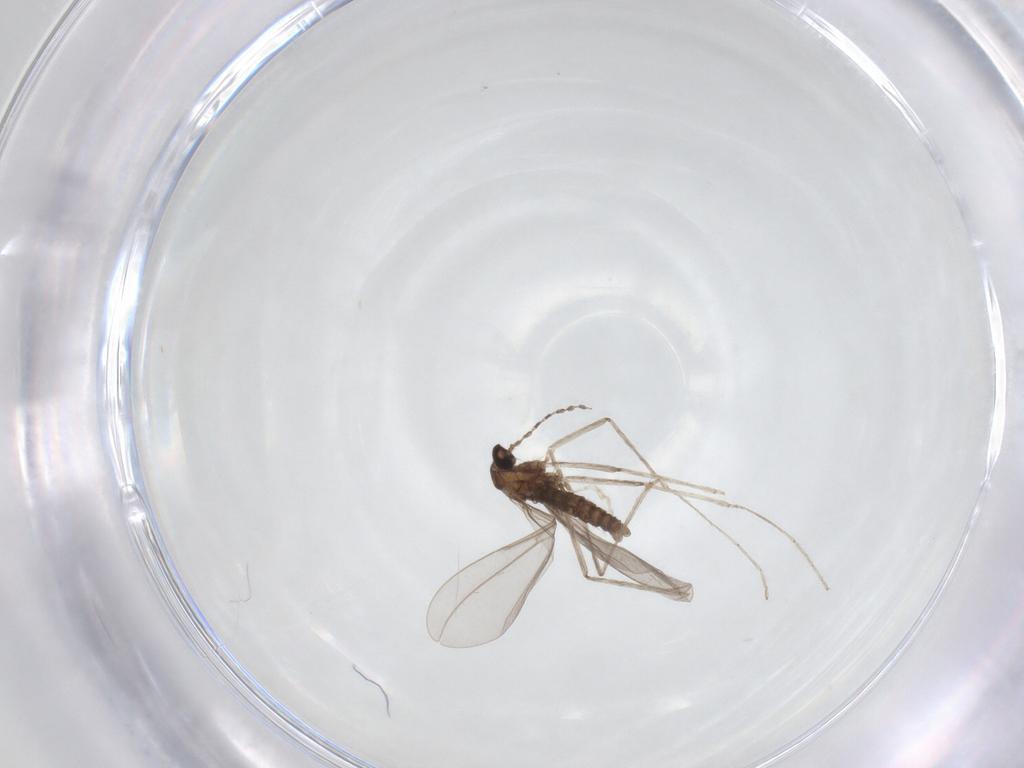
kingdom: Animalia
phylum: Arthropoda
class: Insecta
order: Diptera
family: Cecidomyiidae
